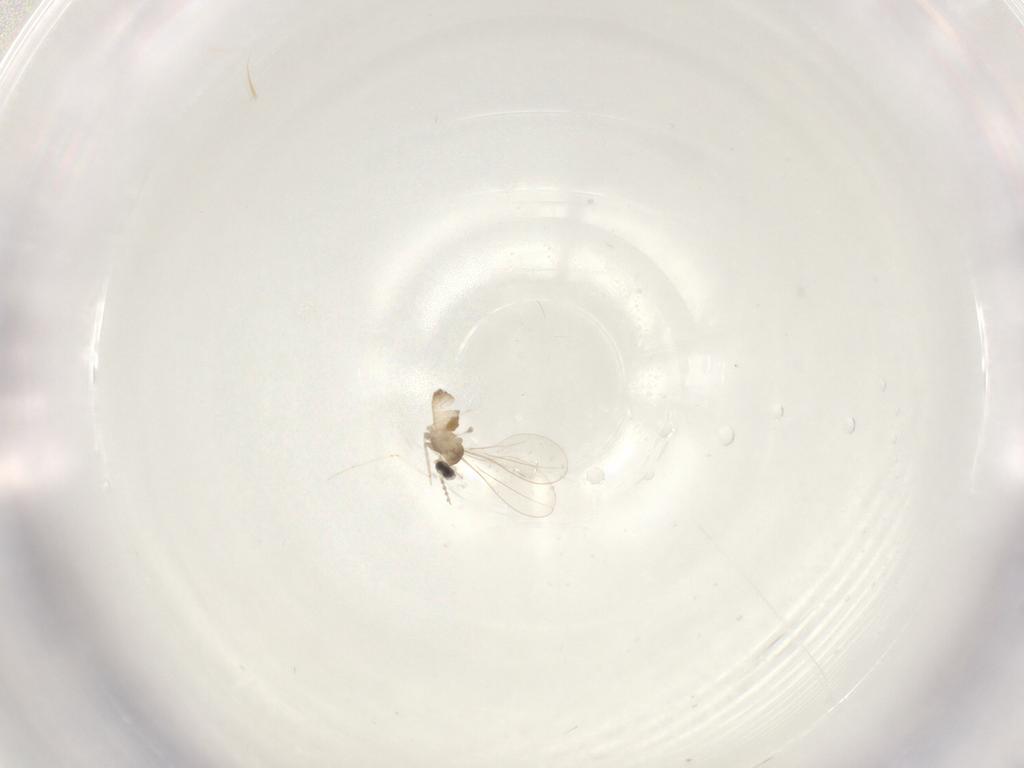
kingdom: Animalia
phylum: Arthropoda
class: Insecta
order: Diptera
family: Cecidomyiidae
